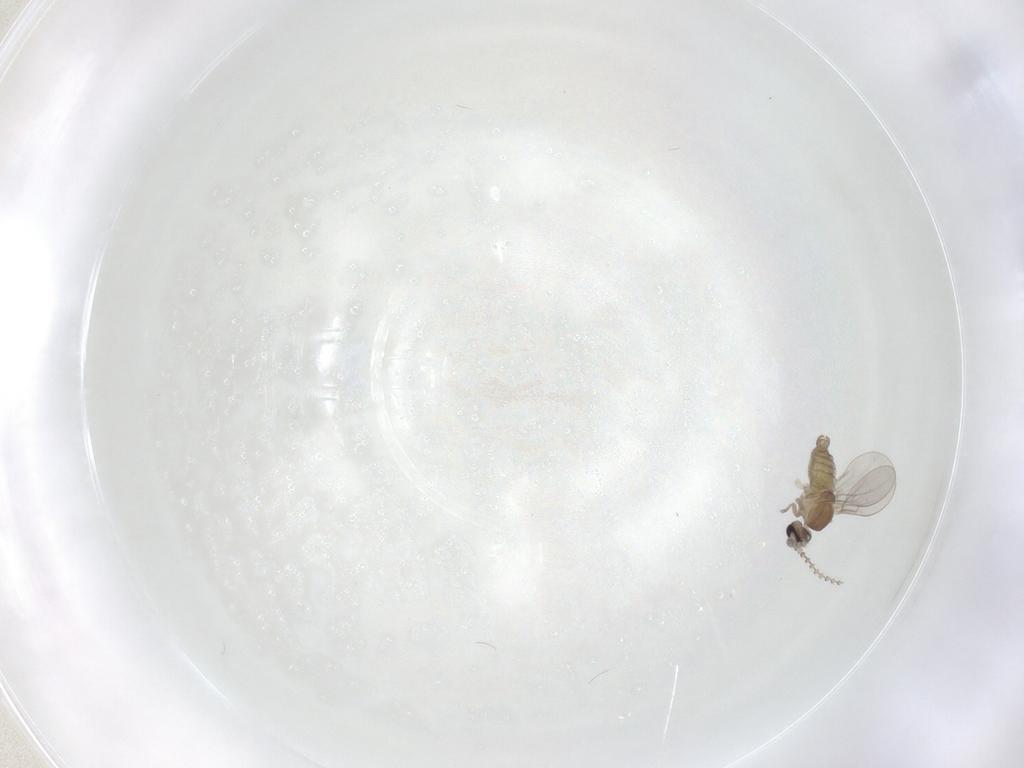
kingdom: Animalia
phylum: Arthropoda
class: Insecta
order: Diptera
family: Cecidomyiidae
